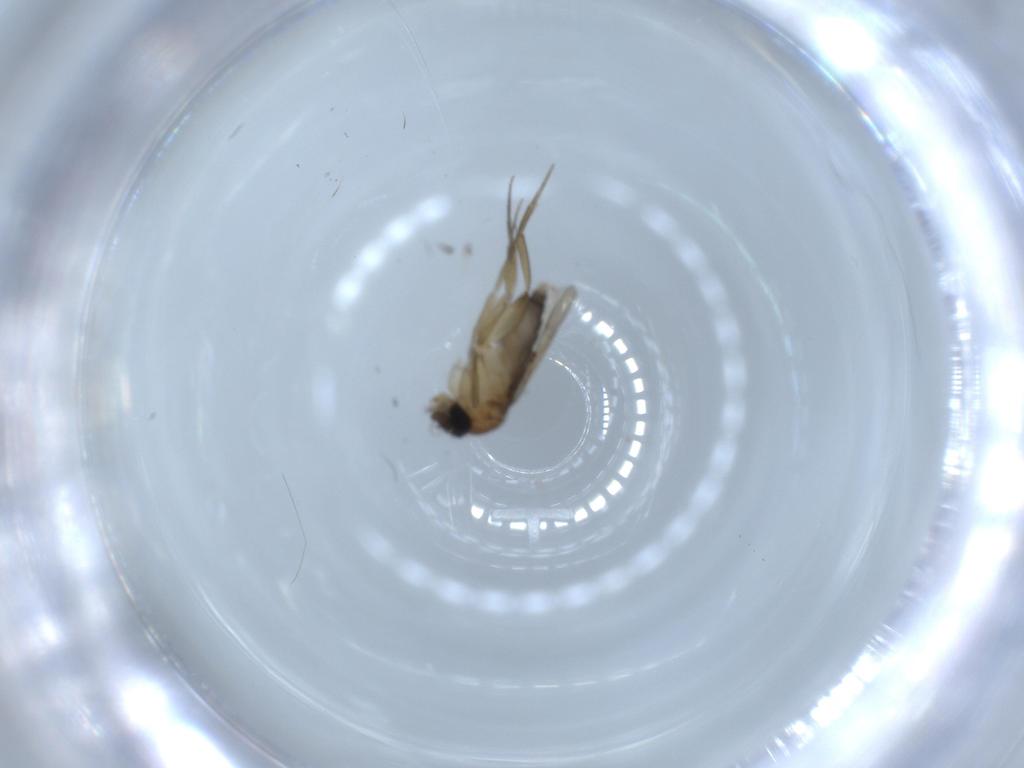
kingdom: Animalia
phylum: Arthropoda
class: Insecta
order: Diptera
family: Phoridae
